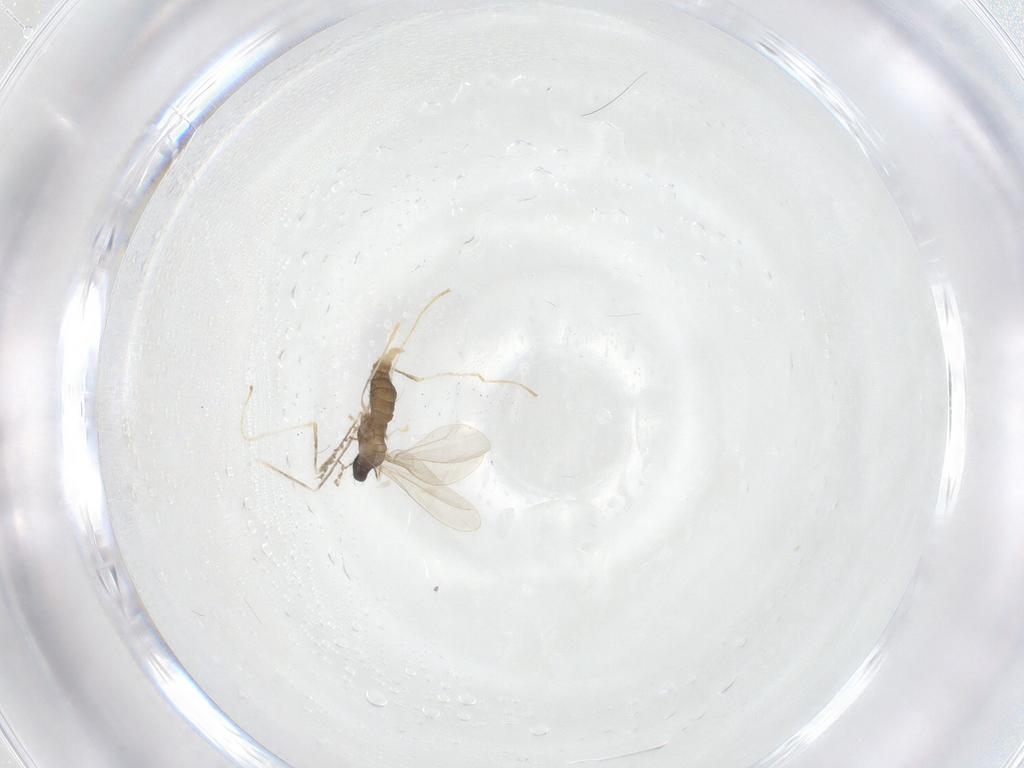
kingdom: Animalia
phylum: Arthropoda
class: Insecta
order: Diptera
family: Cecidomyiidae
